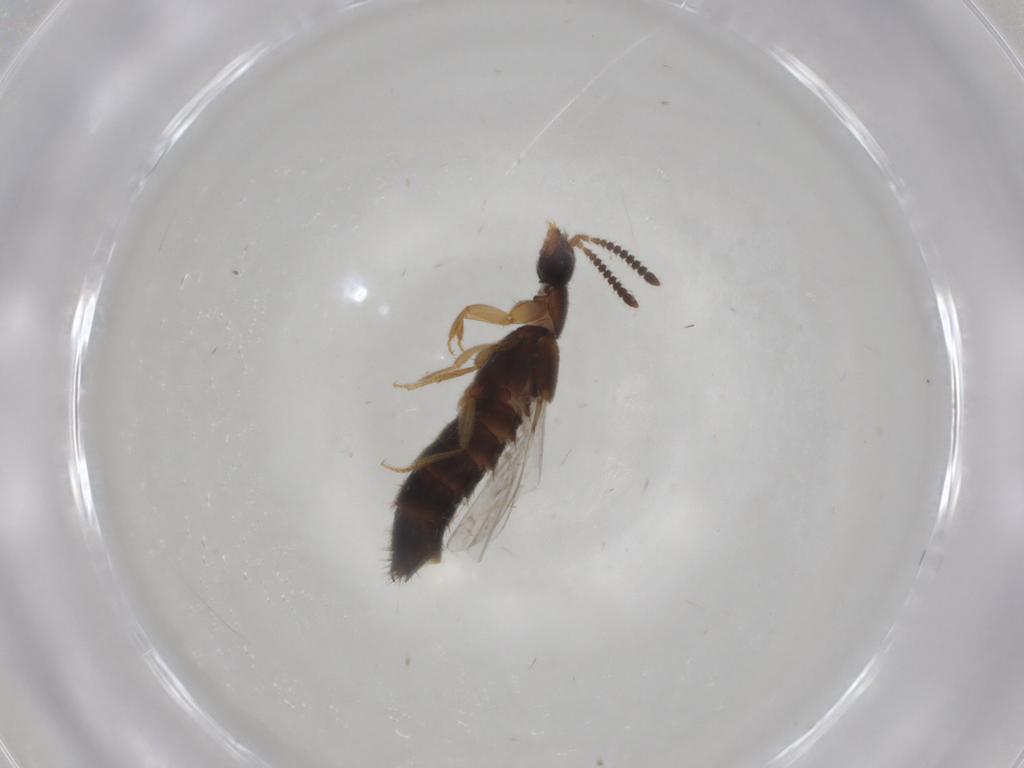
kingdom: Animalia
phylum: Arthropoda
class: Insecta
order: Coleoptera
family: Staphylinidae
